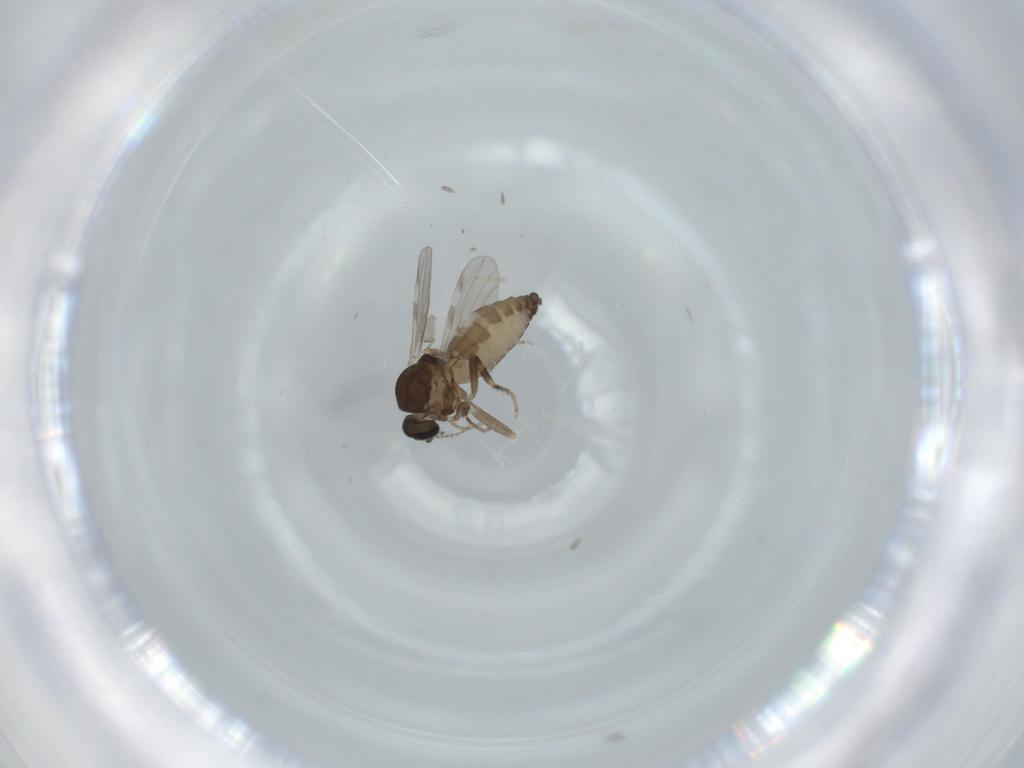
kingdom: Animalia
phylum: Arthropoda
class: Insecta
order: Diptera
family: Ceratopogonidae
